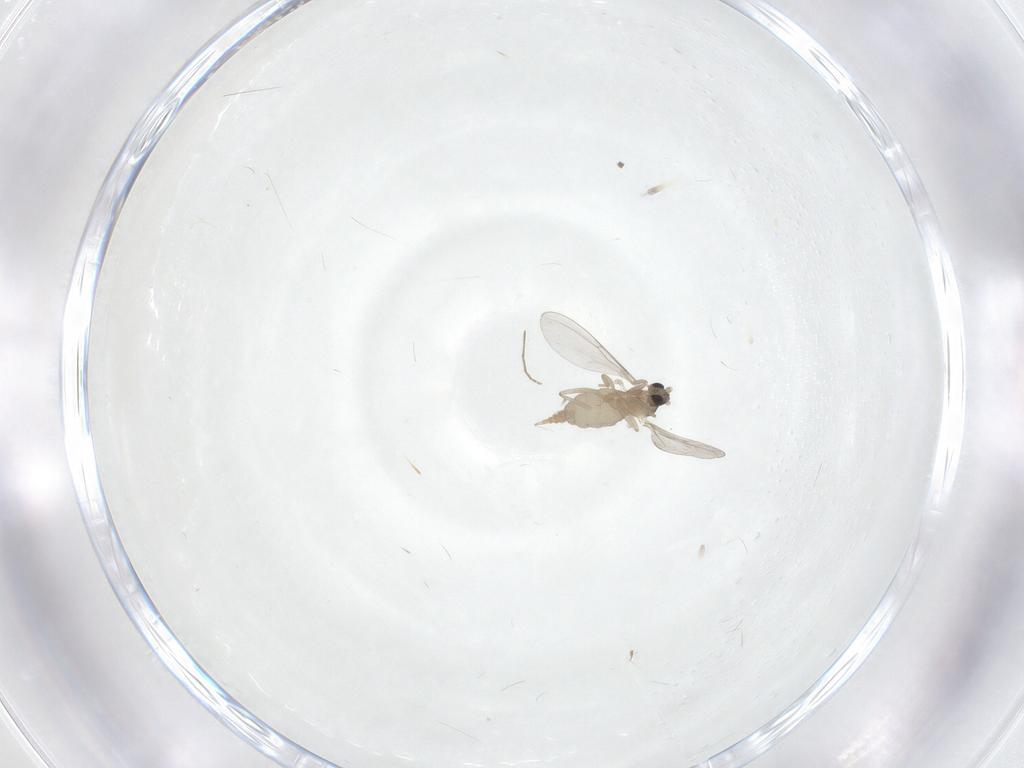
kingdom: Animalia
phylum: Arthropoda
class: Insecta
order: Diptera
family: Cecidomyiidae
